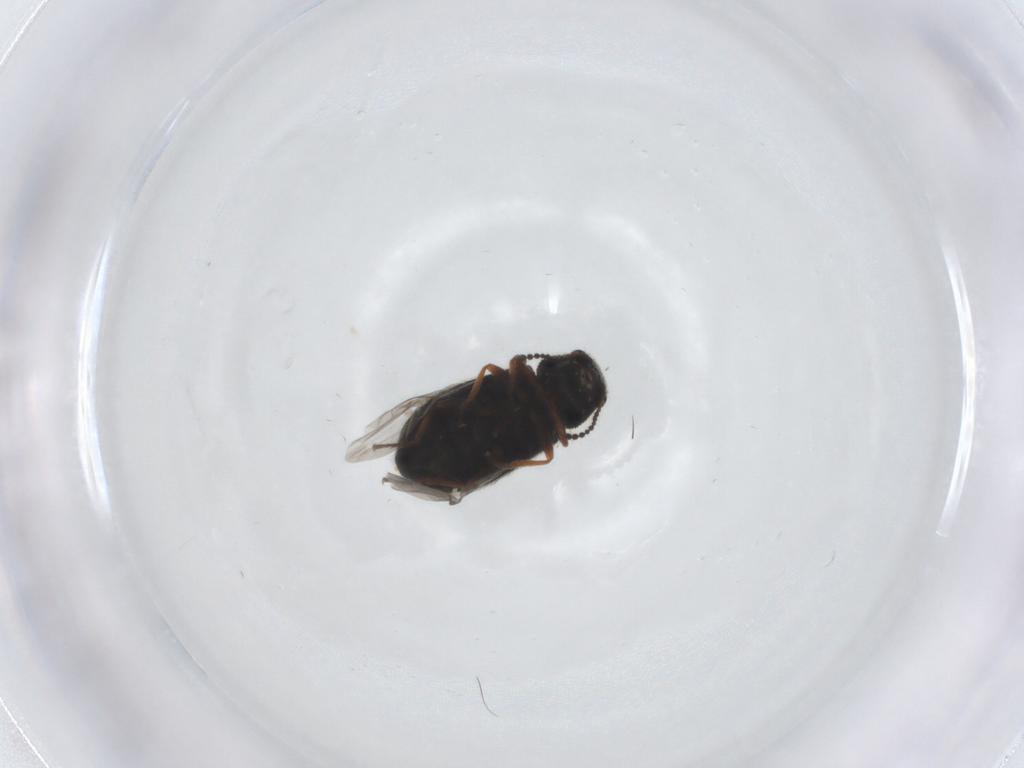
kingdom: Animalia
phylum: Arthropoda
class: Insecta
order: Coleoptera
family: Melyridae
